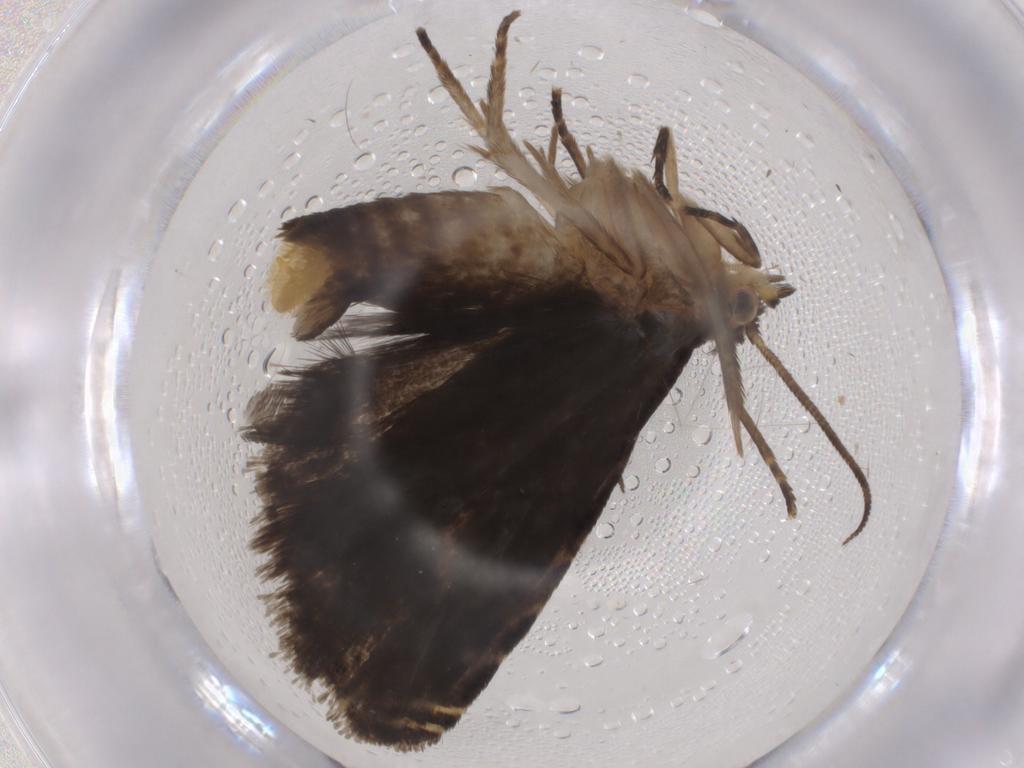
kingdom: Animalia
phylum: Arthropoda
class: Insecta
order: Lepidoptera
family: Tortricidae
